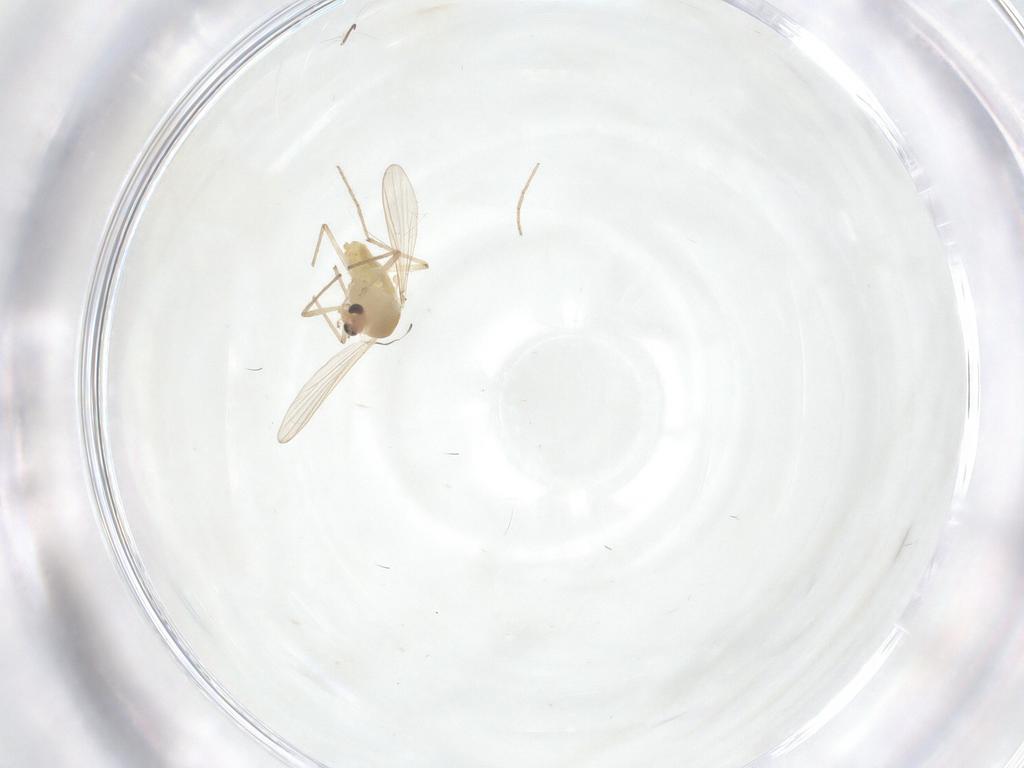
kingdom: Animalia
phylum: Arthropoda
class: Insecta
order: Diptera
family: Chironomidae
